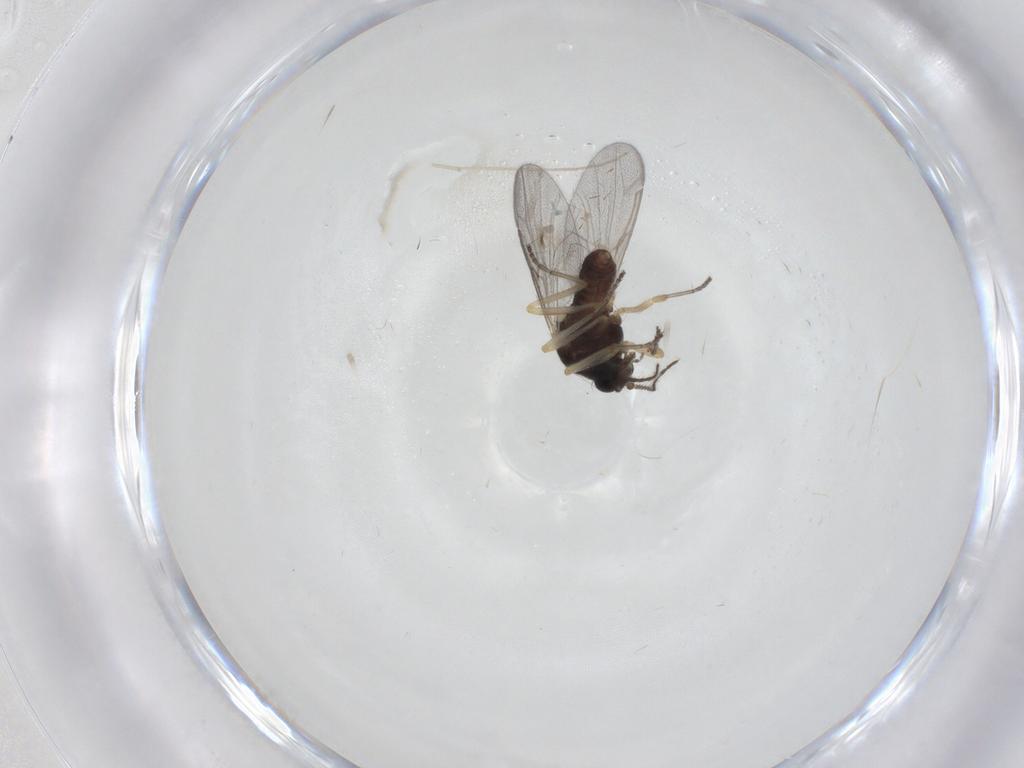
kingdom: Animalia
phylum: Arthropoda
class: Insecta
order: Diptera
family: Ceratopogonidae
